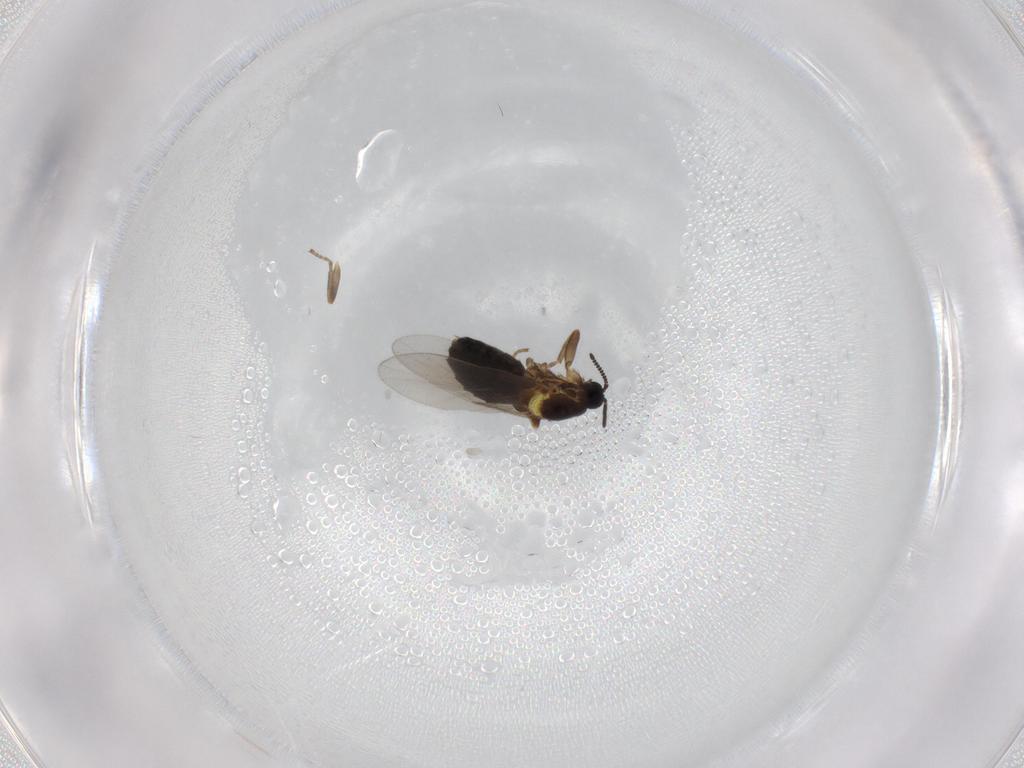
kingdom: Animalia
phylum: Arthropoda
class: Insecta
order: Diptera
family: Scatopsidae
